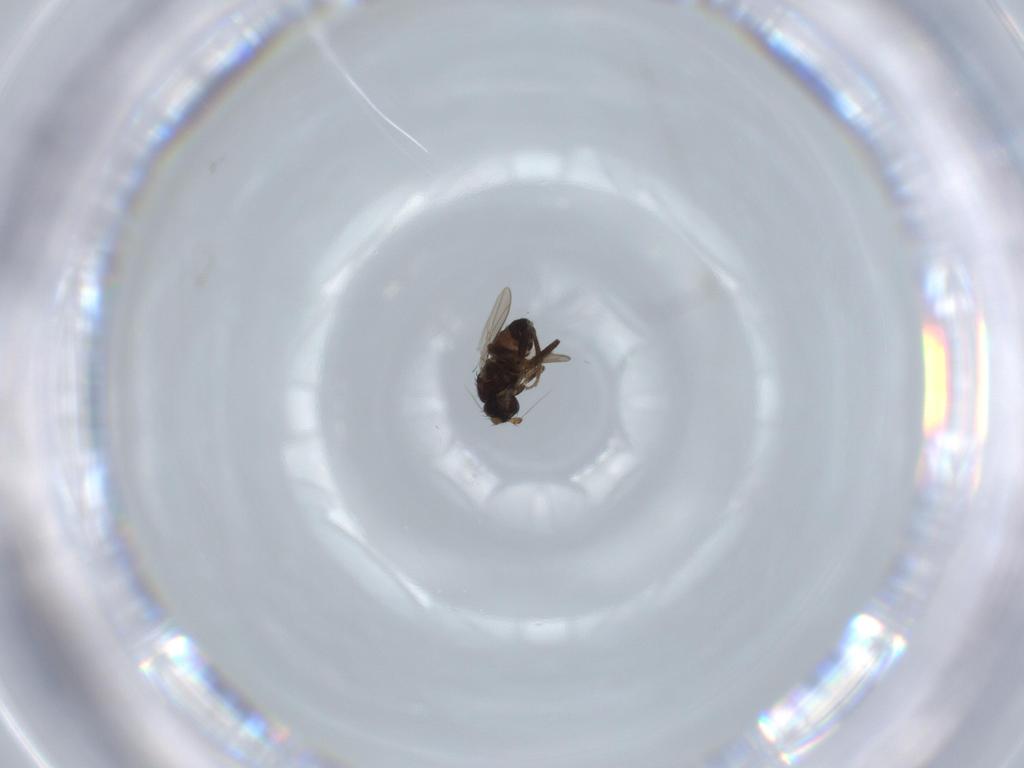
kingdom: Animalia
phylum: Arthropoda
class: Insecta
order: Diptera
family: Sphaeroceridae
